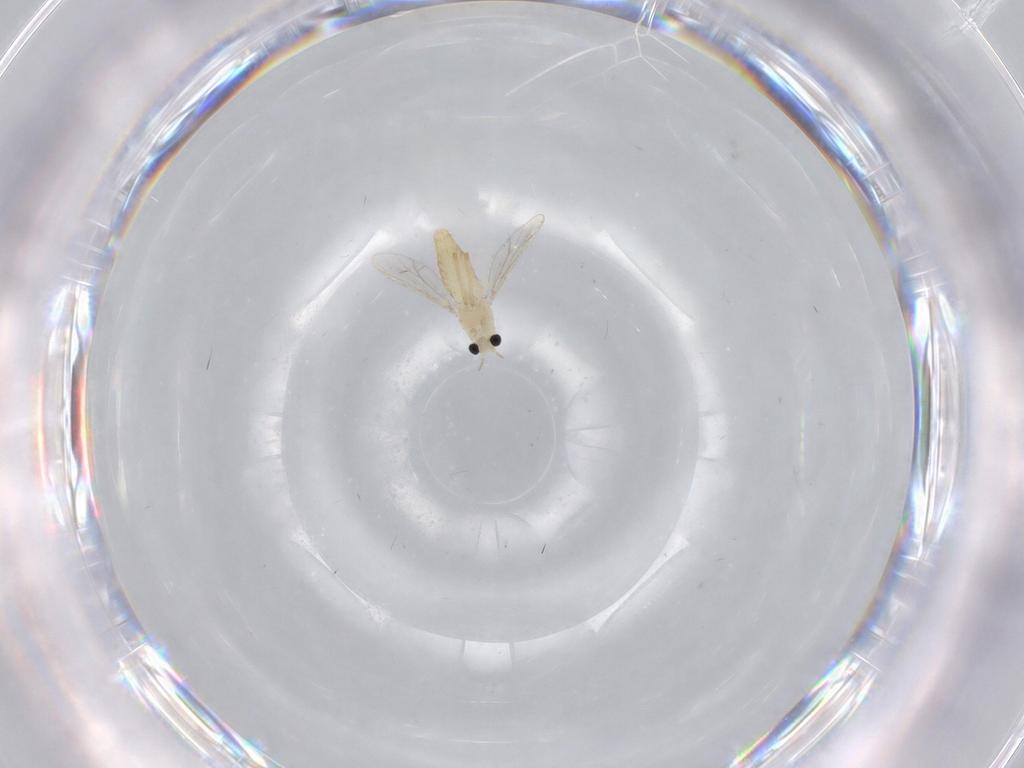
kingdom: Animalia
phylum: Arthropoda
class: Insecta
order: Diptera
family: Chironomidae
